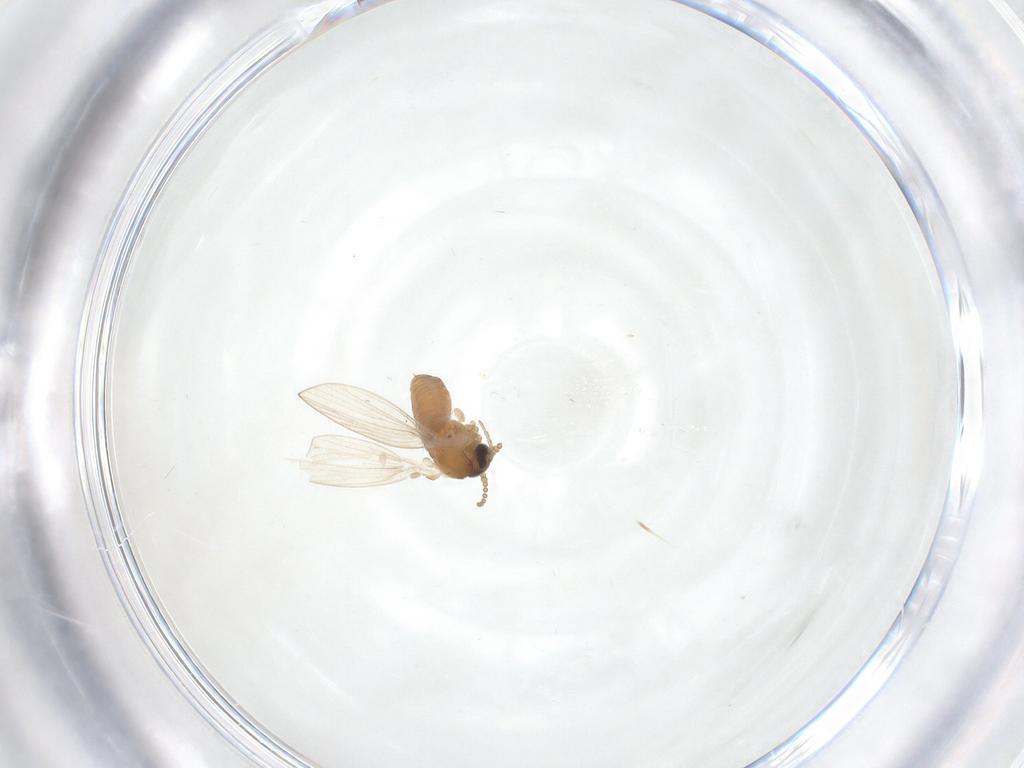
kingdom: Animalia
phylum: Arthropoda
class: Insecta
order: Diptera
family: Psychodidae
